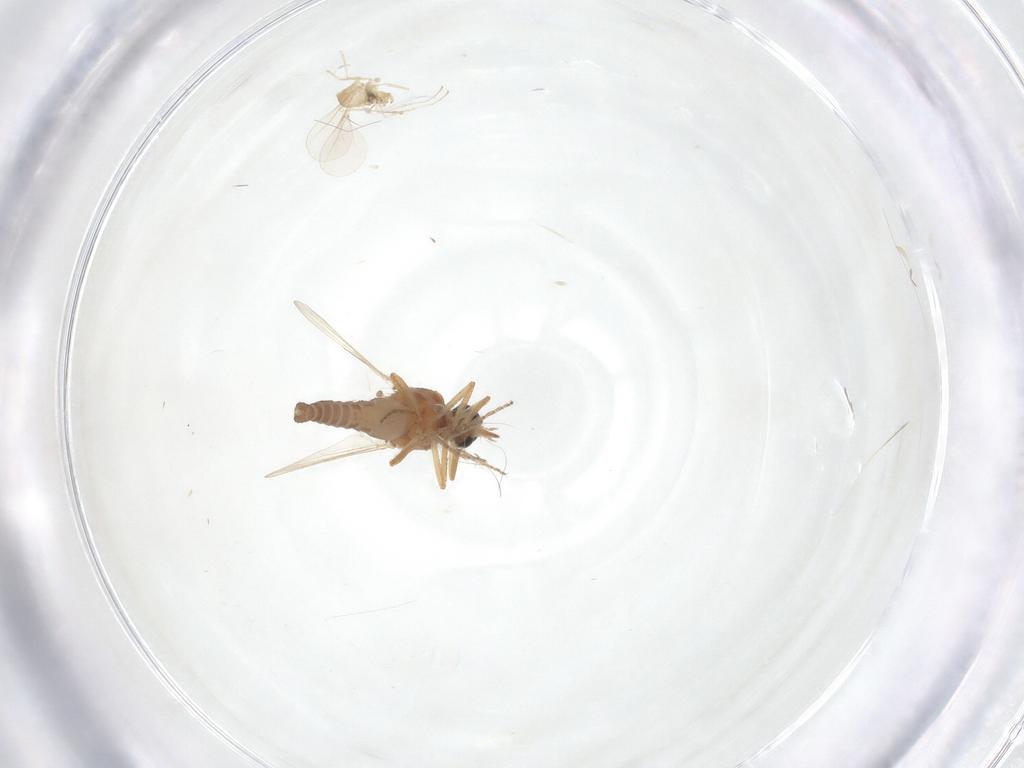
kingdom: Animalia
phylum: Arthropoda
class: Insecta
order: Diptera
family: Ceratopogonidae
